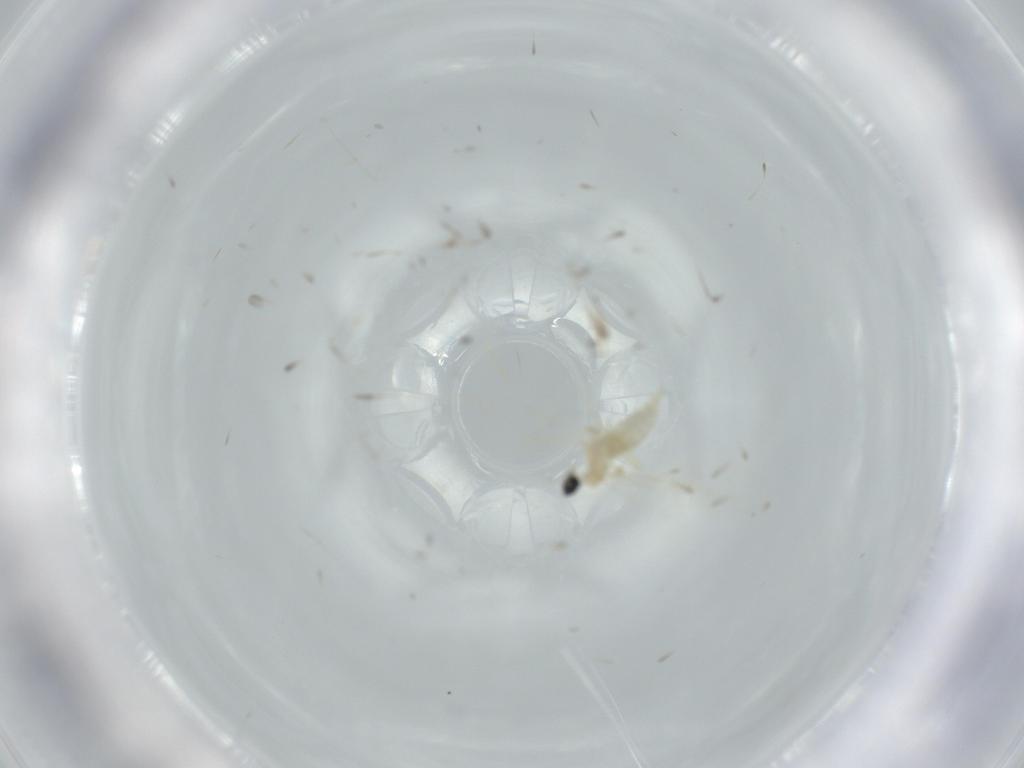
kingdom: Animalia
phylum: Arthropoda
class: Insecta
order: Diptera
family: Cecidomyiidae
